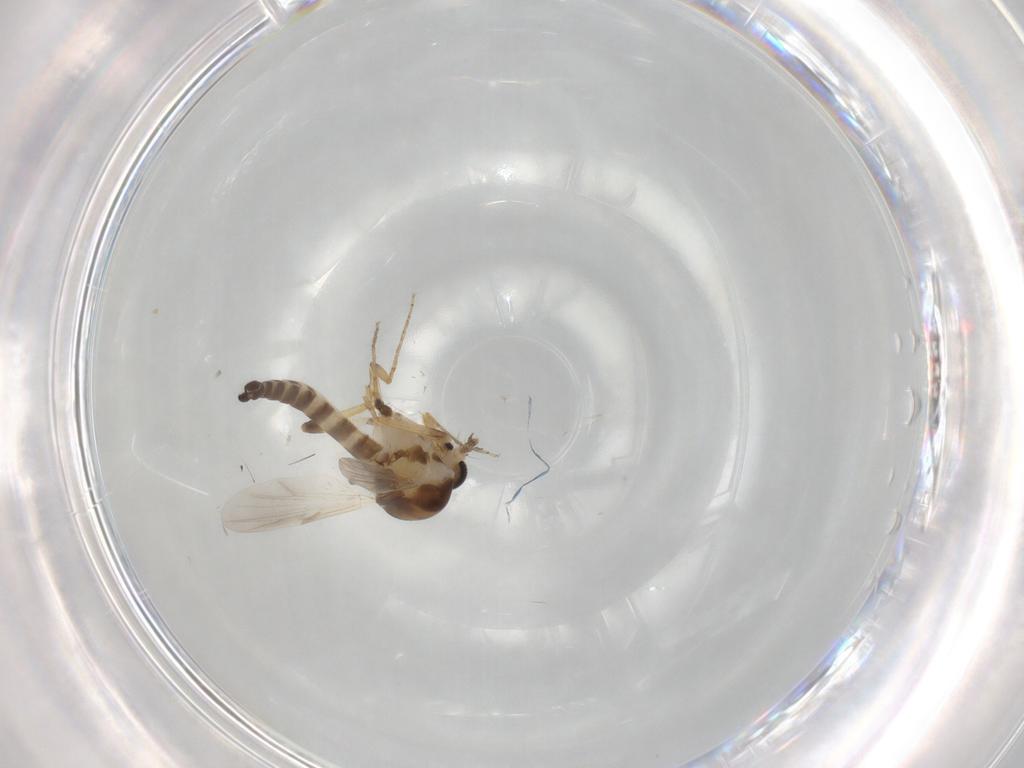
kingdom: Animalia
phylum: Arthropoda
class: Insecta
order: Diptera
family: Ceratopogonidae
